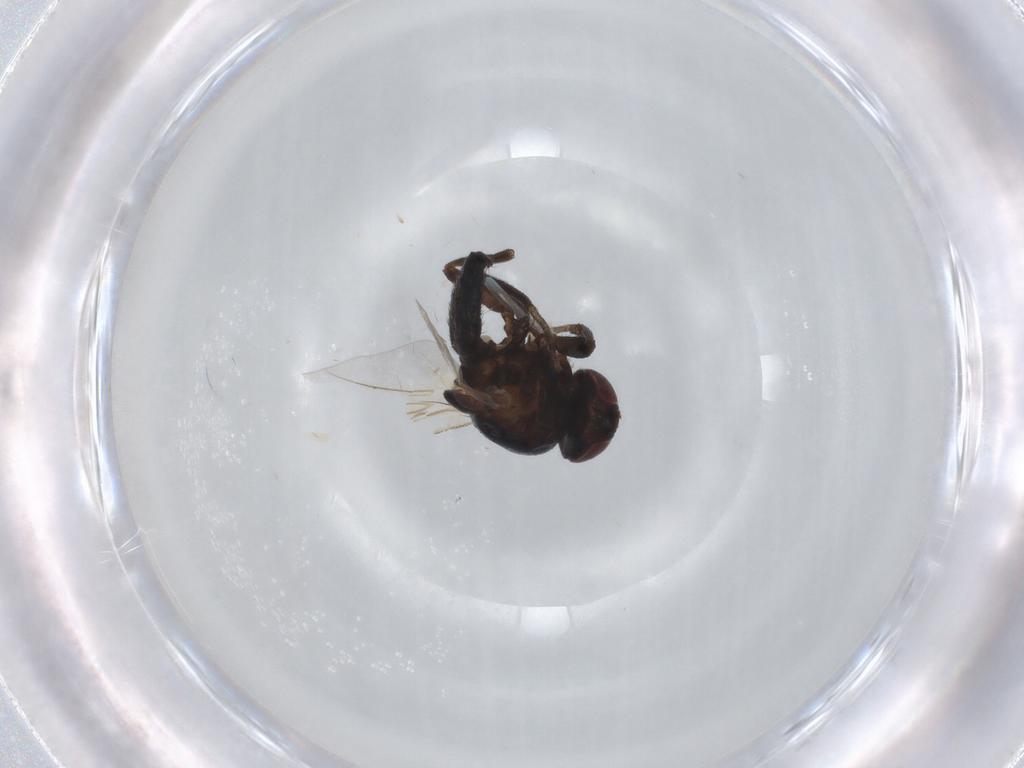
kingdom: Animalia
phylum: Arthropoda
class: Insecta
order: Diptera
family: Agromyzidae
